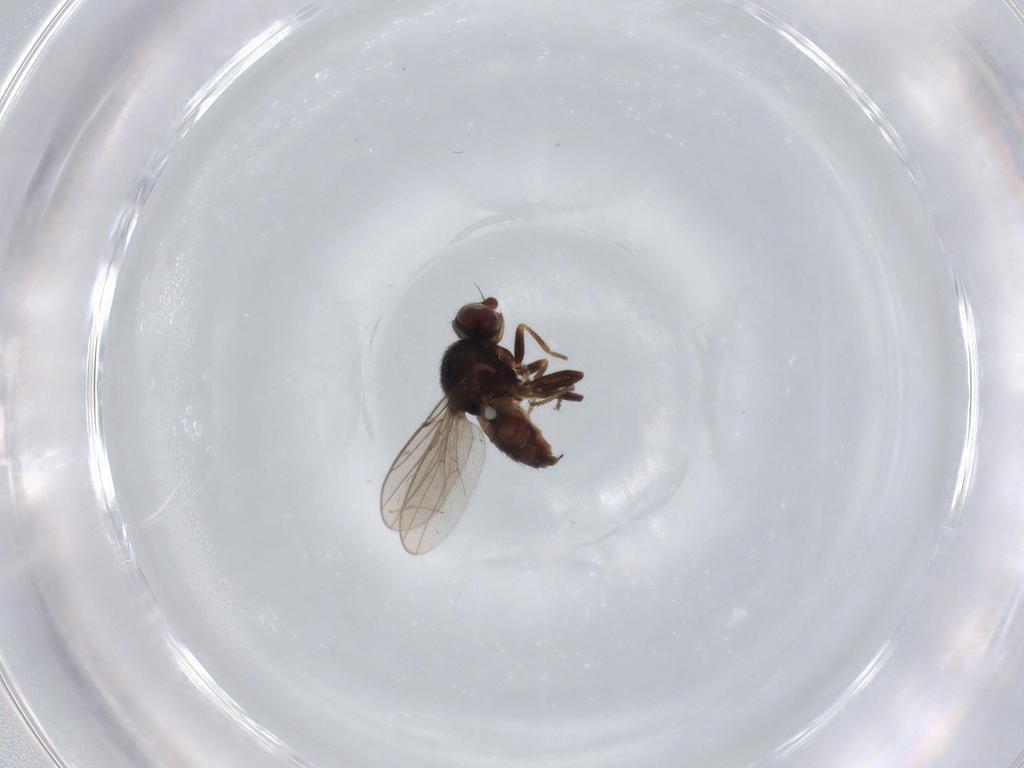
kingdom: Animalia
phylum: Arthropoda
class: Insecta
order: Diptera
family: Chloropidae
